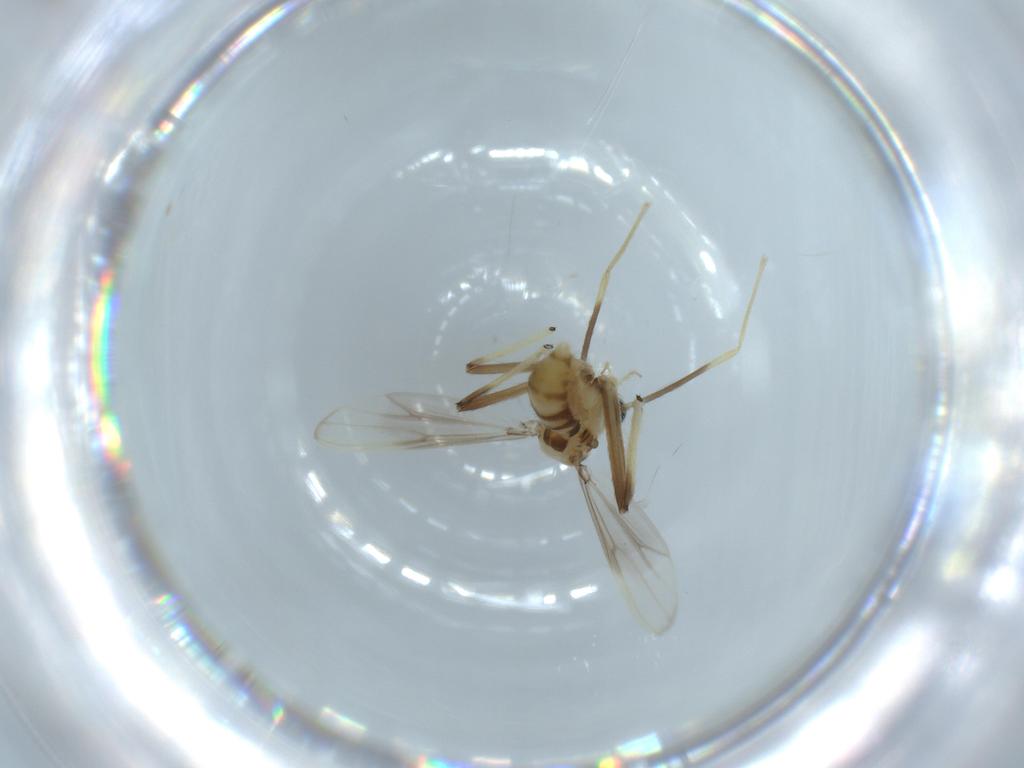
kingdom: Animalia
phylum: Arthropoda
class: Insecta
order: Diptera
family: Chironomidae
